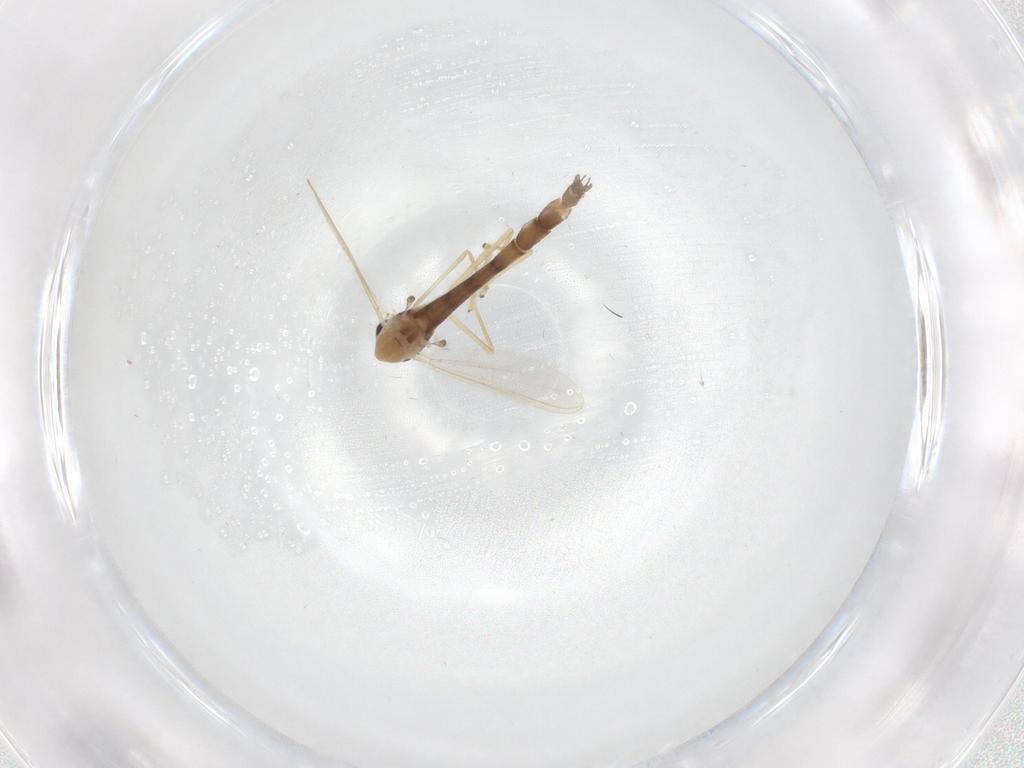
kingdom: Animalia
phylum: Arthropoda
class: Insecta
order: Diptera
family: Chironomidae
